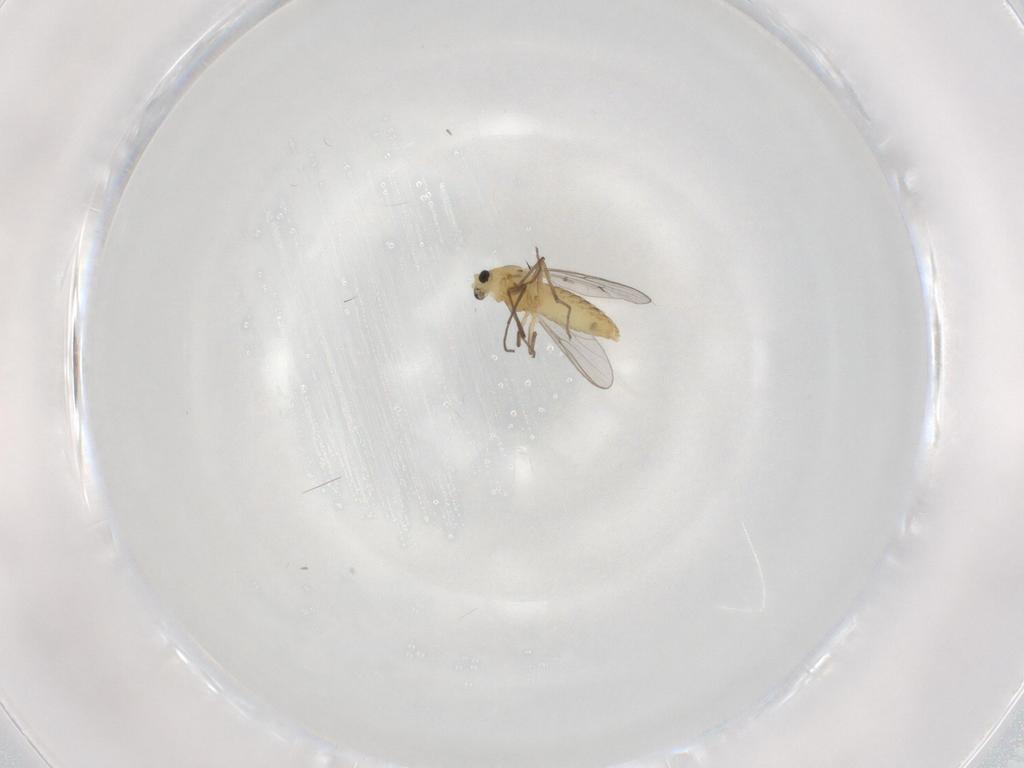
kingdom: Animalia
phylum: Arthropoda
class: Insecta
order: Diptera
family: Chironomidae
